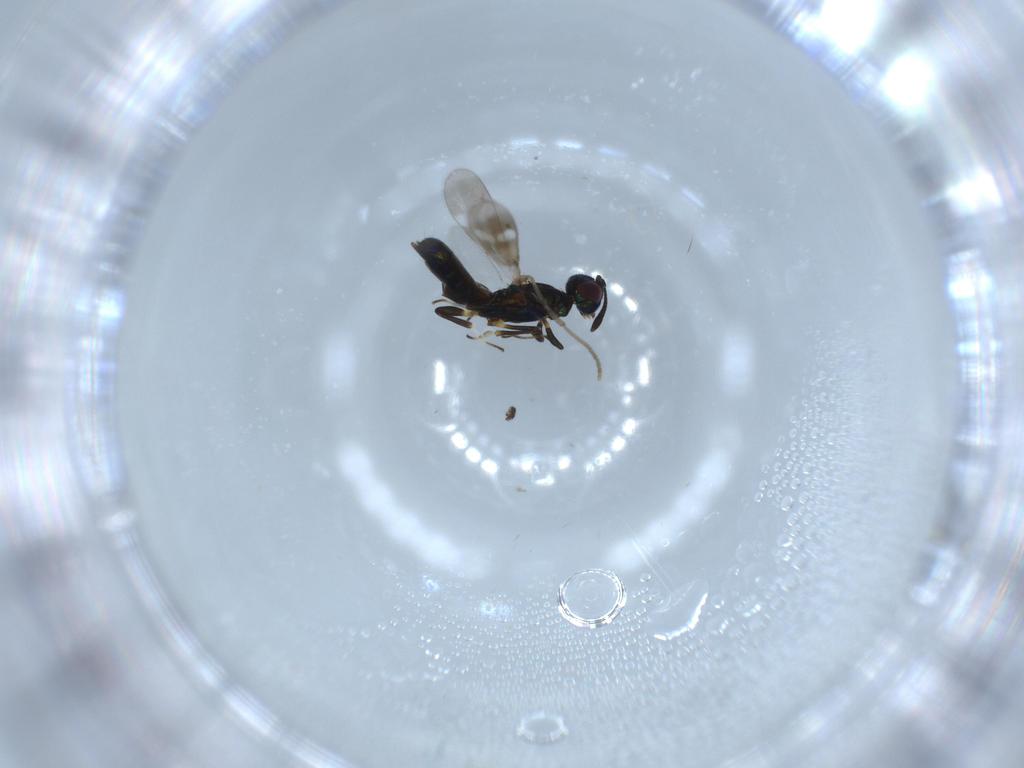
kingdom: Animalia
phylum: Arthropoda
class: Insecta
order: Hymenoptera
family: Eupelmidae
